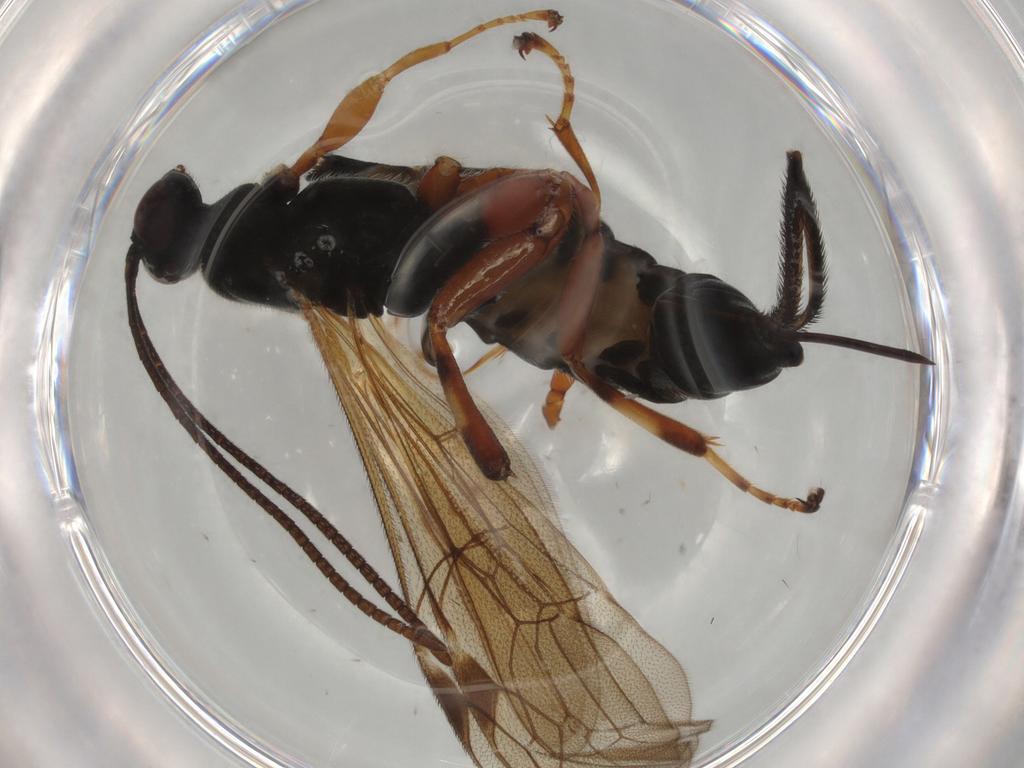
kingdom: Animalia
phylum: Arthropoda
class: Insecta
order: Hymenoptera
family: Ichneumonidae
